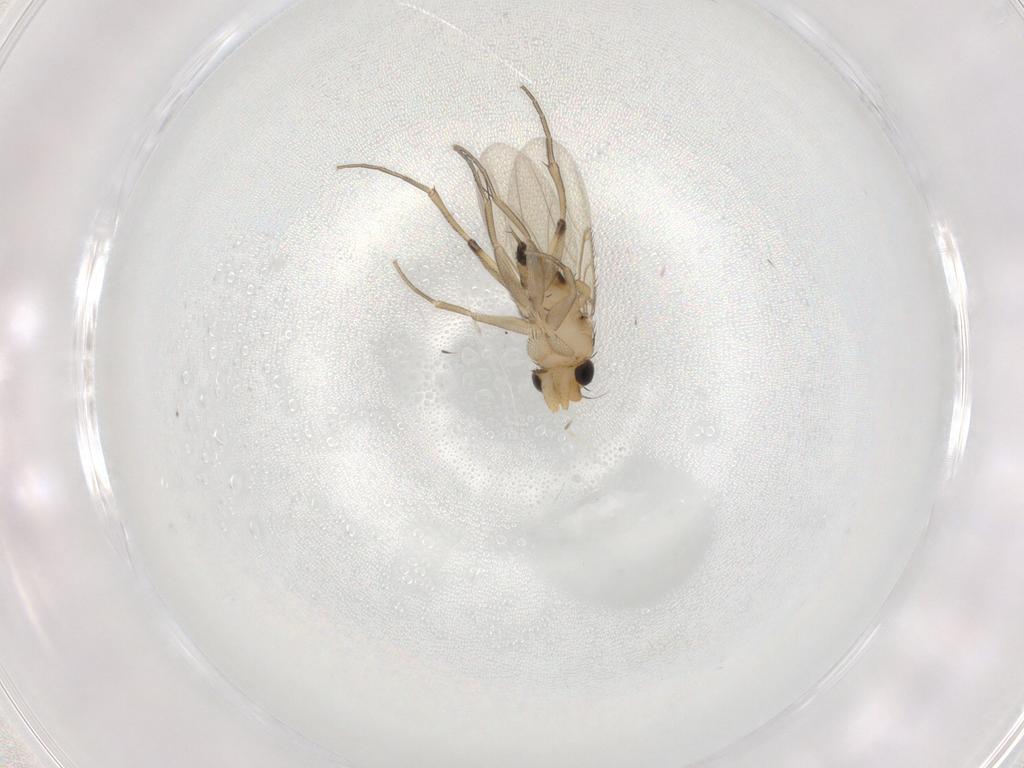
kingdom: Animalia
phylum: Arthropoda
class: Insecta
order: Diptera
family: Phoridae
